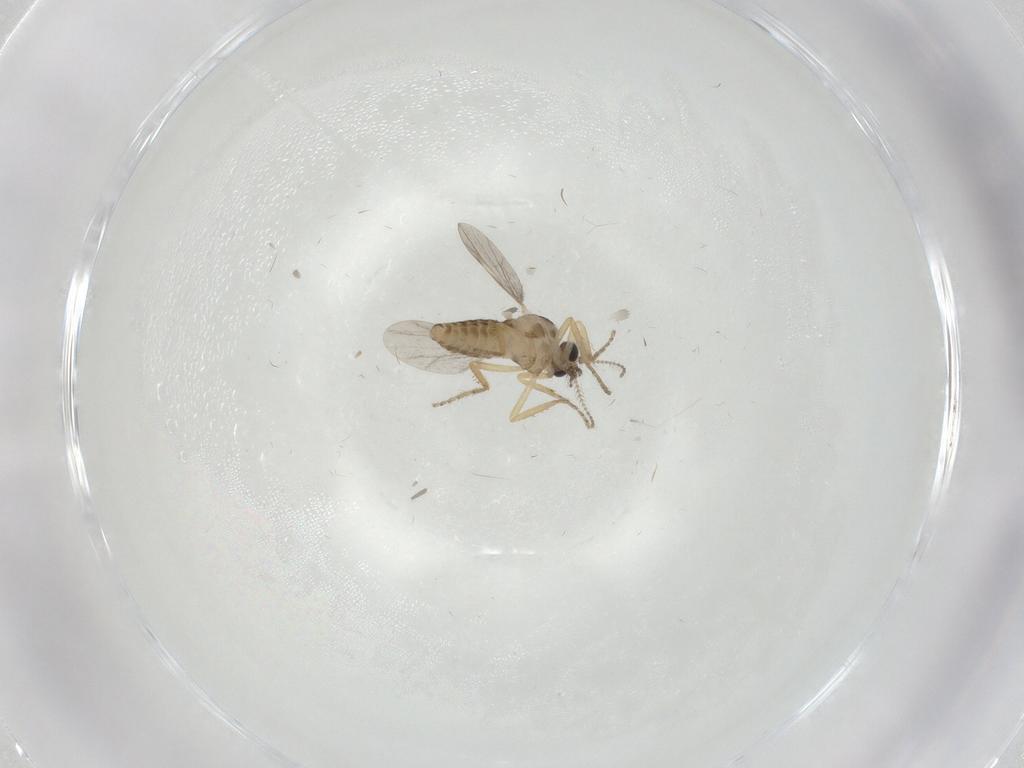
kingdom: Animalia
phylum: Arthropoda
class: Insecta
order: Diptera
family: Ceratopogonidae
